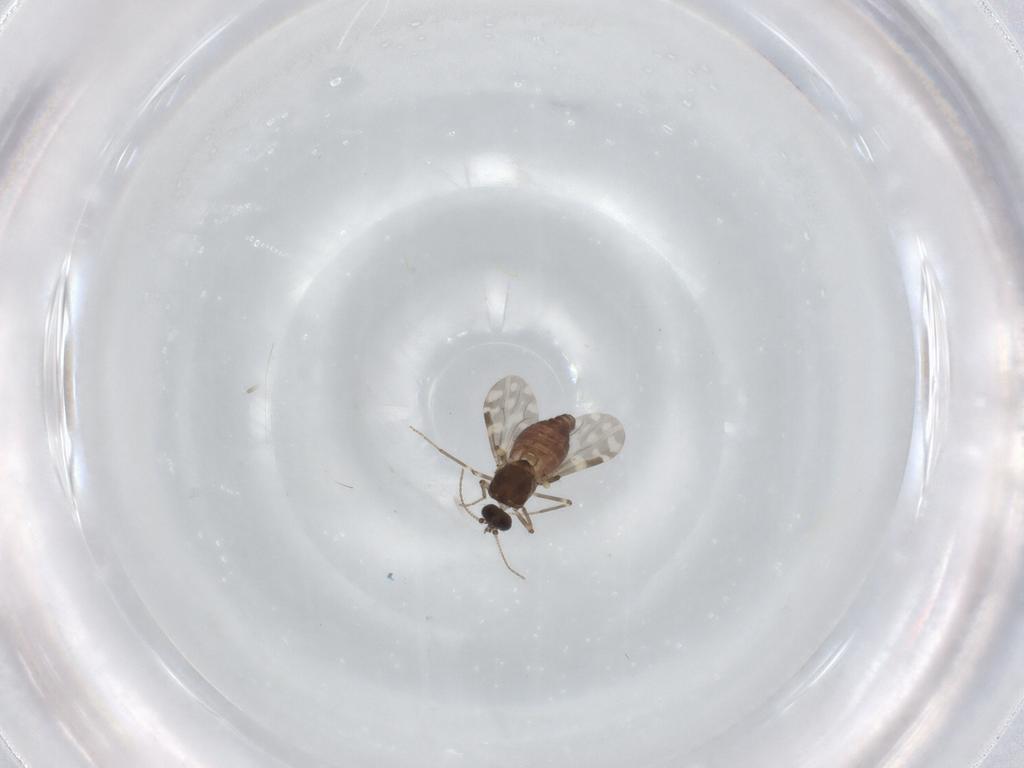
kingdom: Animalia
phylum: Arthropoda
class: Insecta
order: Diptera
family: Chironomidae
